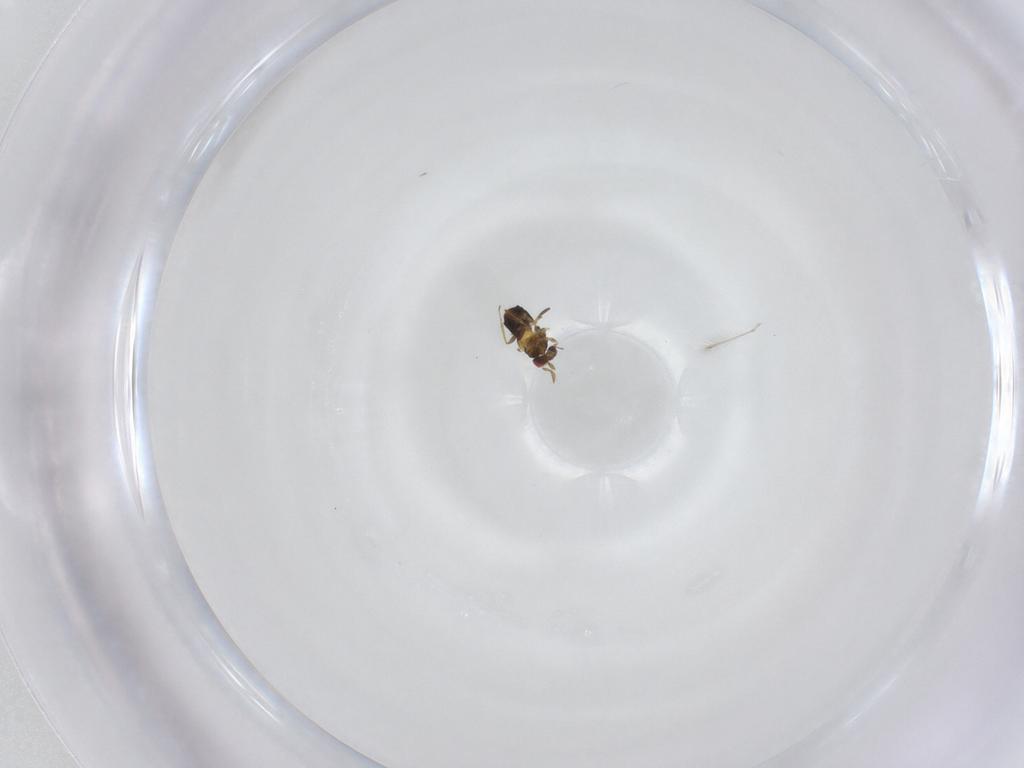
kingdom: Animalia
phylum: Arthropoda
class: Insecta
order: Hymenoptera
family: Trichogrammatidae
